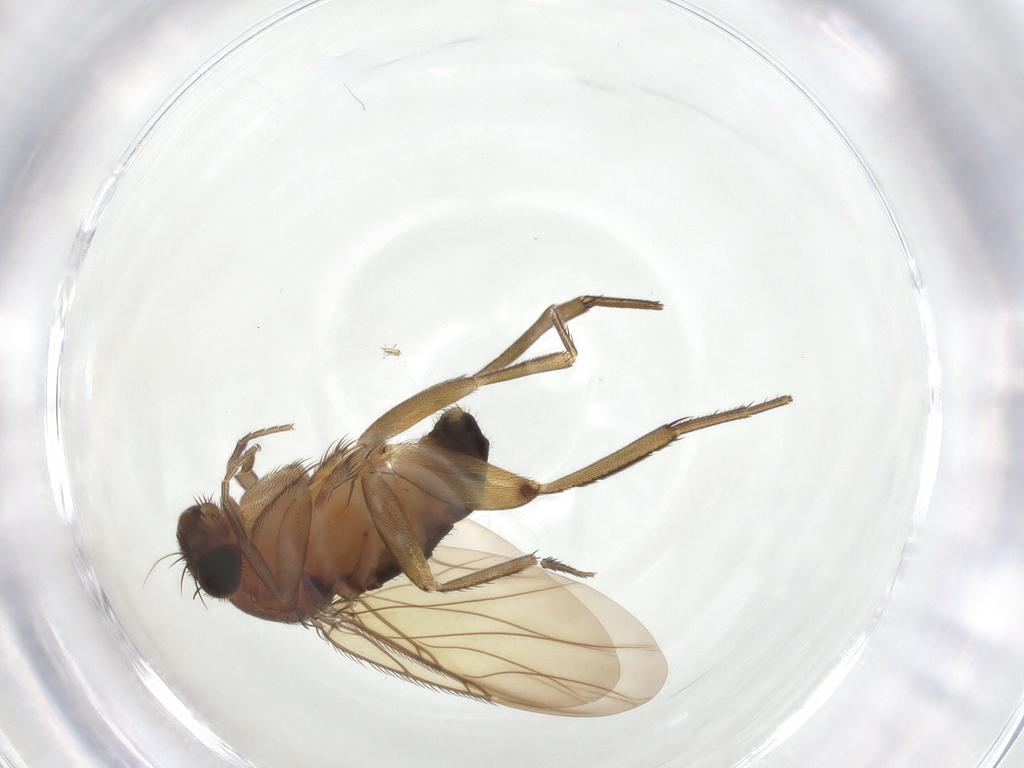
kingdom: Animalia
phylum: Arthropoda
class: Insecta
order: Diptera
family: Phoridae
